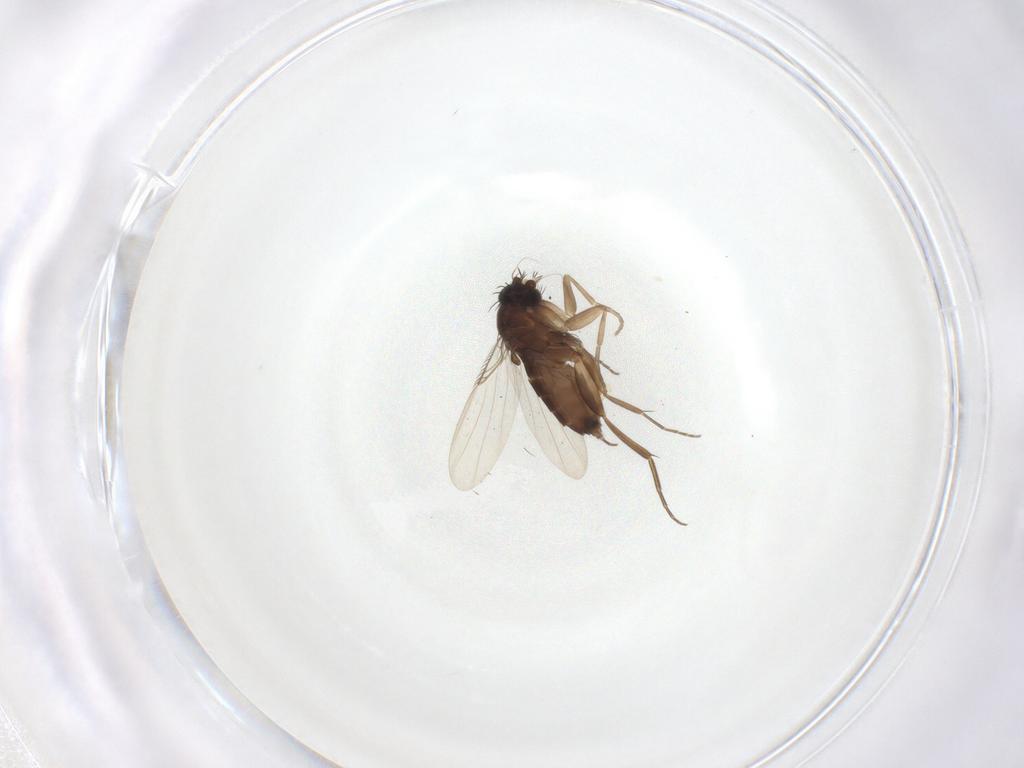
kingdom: Animalia
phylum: Arthropoda
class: Insecta
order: Diptera
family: Phoridae
